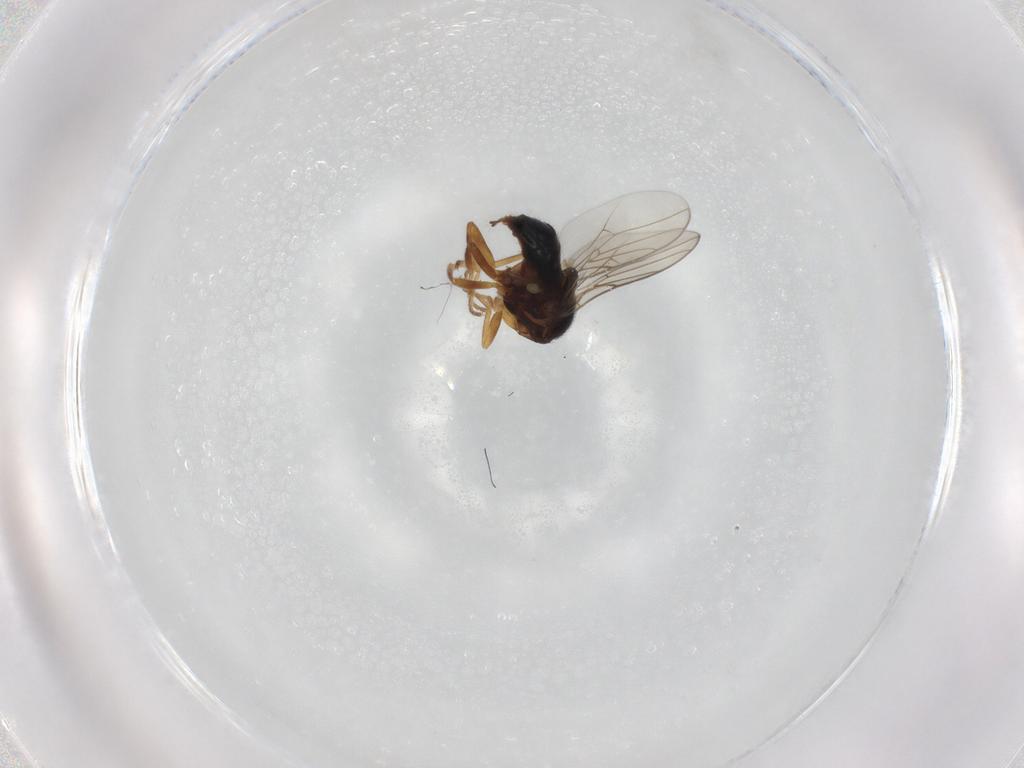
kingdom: Animalia
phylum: Arthropoda
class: Insecta
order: Diptera
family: Chloropidae
